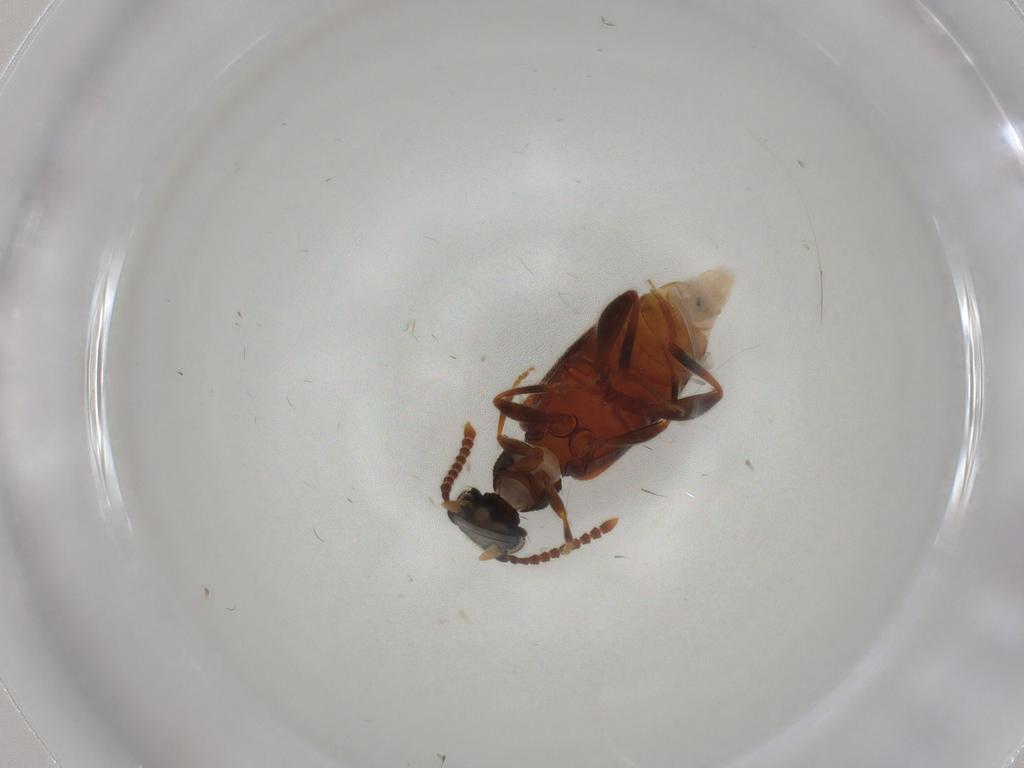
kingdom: Animalia
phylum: Arthropoda
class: Insecta
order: Coleoptera
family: Aderidae
